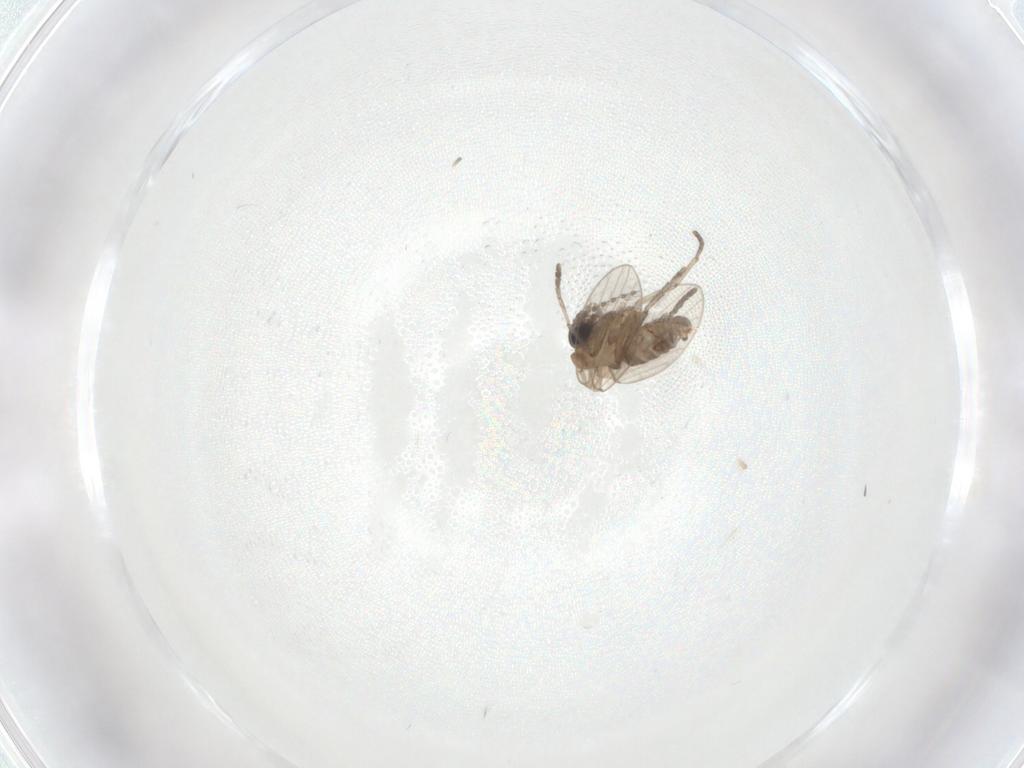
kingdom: Animalia
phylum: Arthropoda
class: Insecta
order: Diptera
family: Psychodidae
